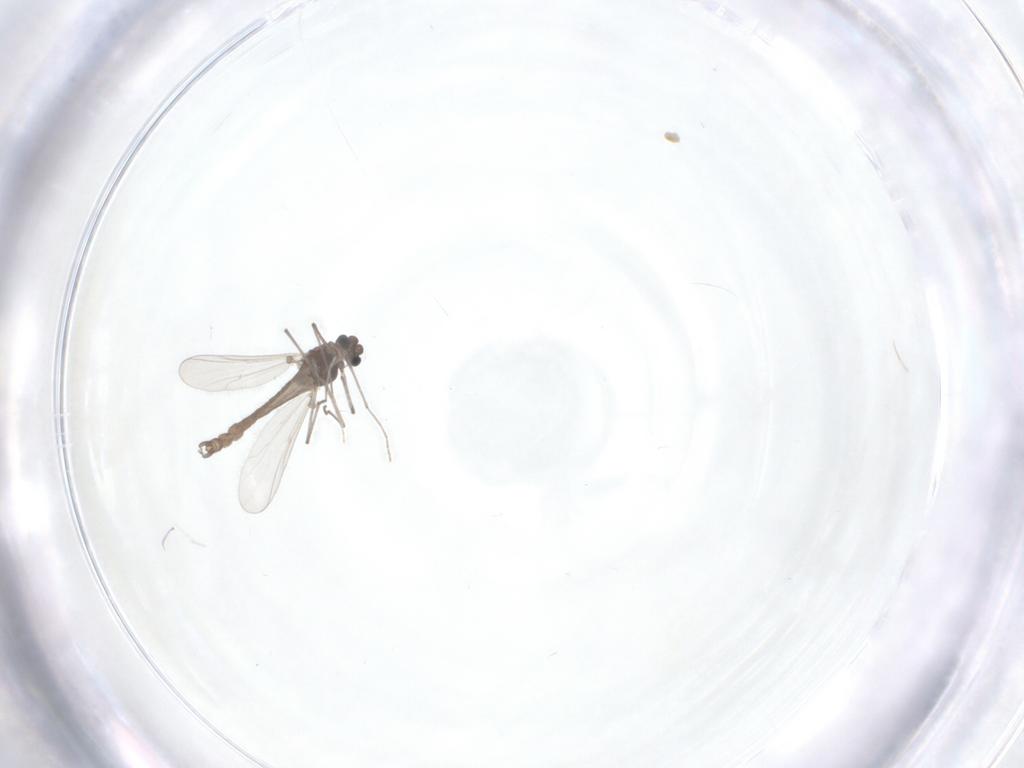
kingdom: Animalia
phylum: Arthropoda
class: Insecta
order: Diptera
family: Chironomidae
